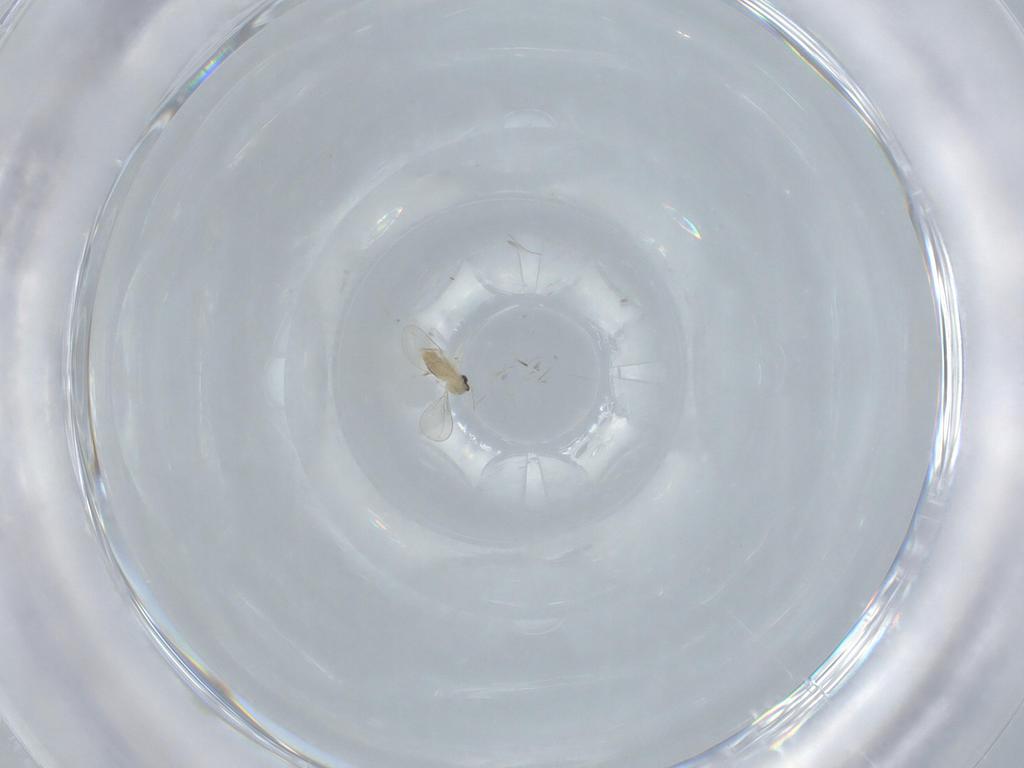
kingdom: Animalia
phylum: Arthropoda
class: Insecta
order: Diptera
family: Cecidomyiidae
